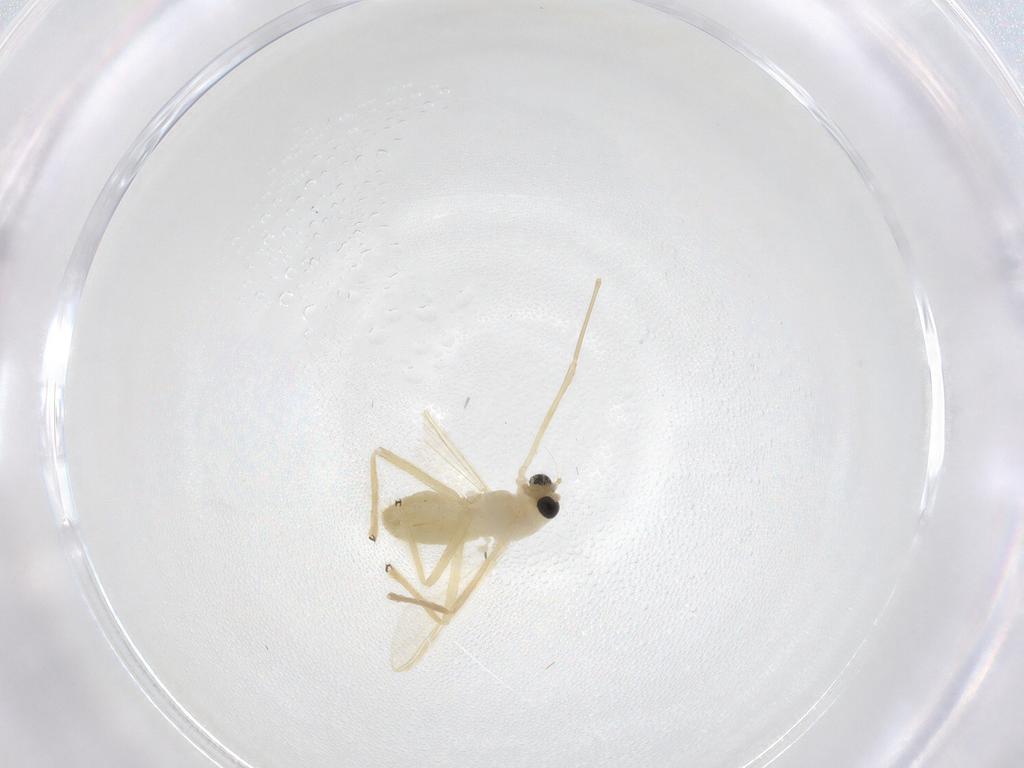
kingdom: Animalia
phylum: Arthropoda
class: Insecta
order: Diptera
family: Chironomidae
